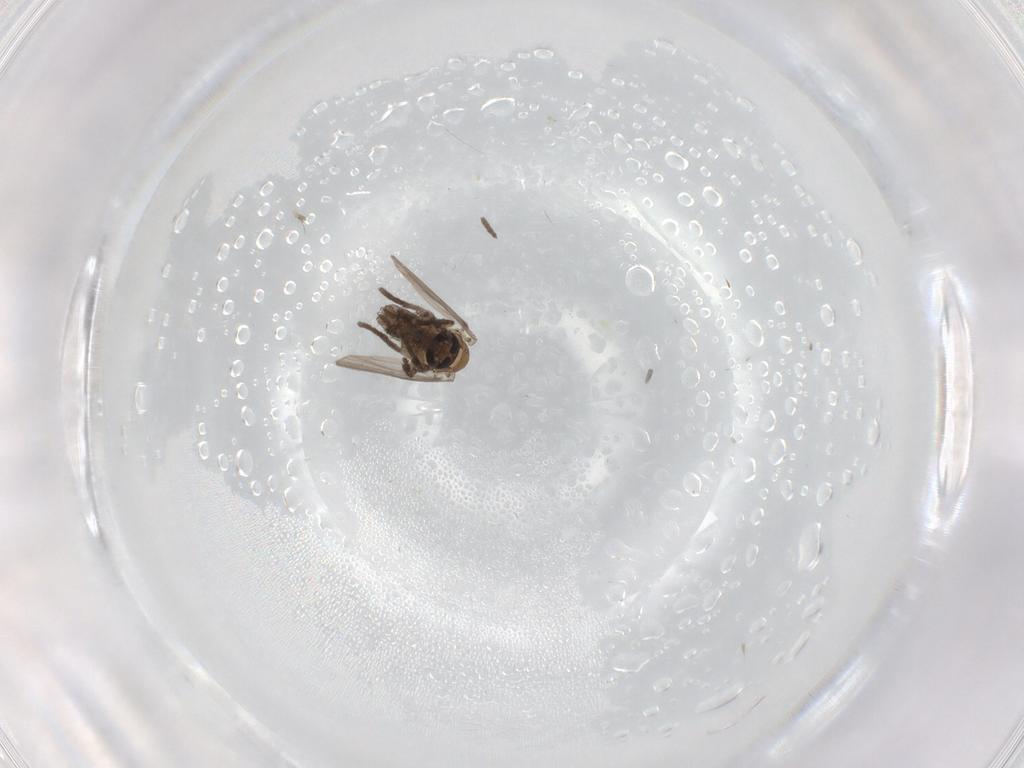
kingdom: Animalia
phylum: Arthropoda
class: Insecta
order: Diptera
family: Psychodidae
